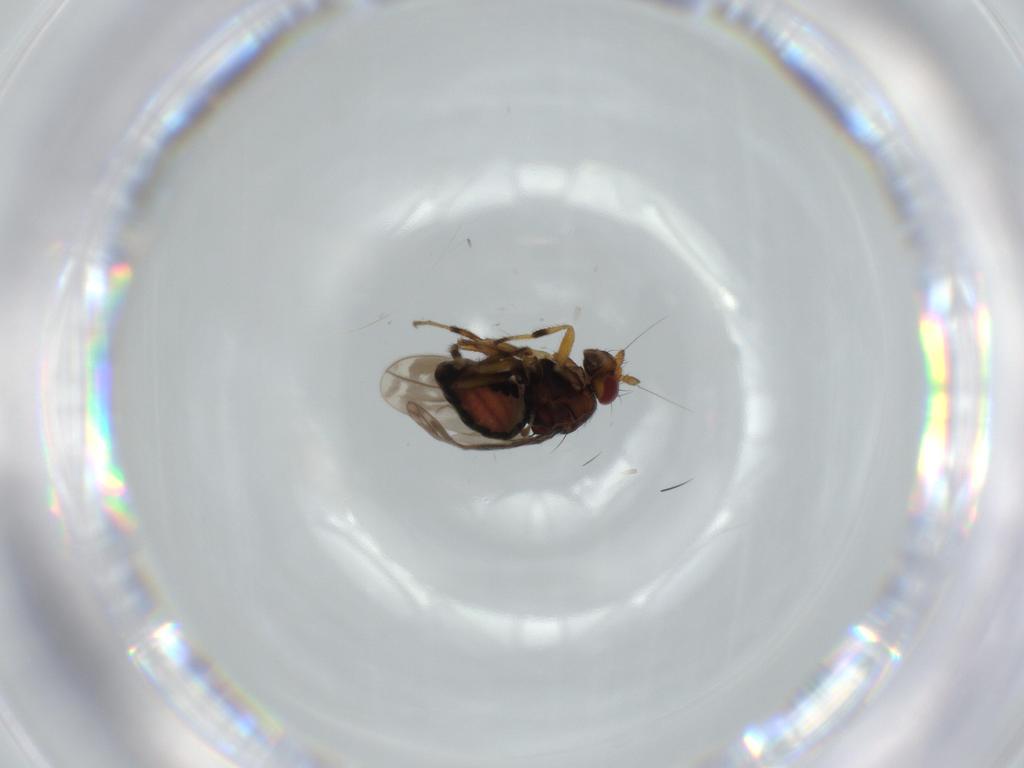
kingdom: Animalia
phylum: Arthropoda
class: Insecta
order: Diptera
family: Sphaeroceridae
